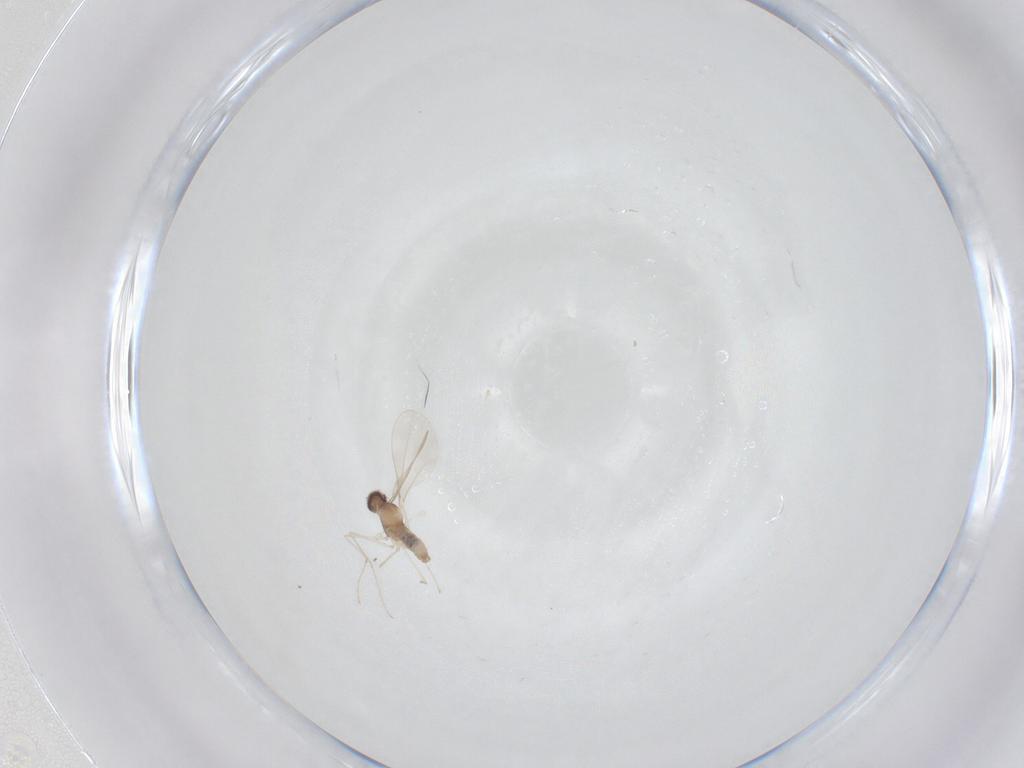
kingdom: Animalia
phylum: Arthropoda
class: Insecta
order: Diptera
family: Cecidomyiidae
